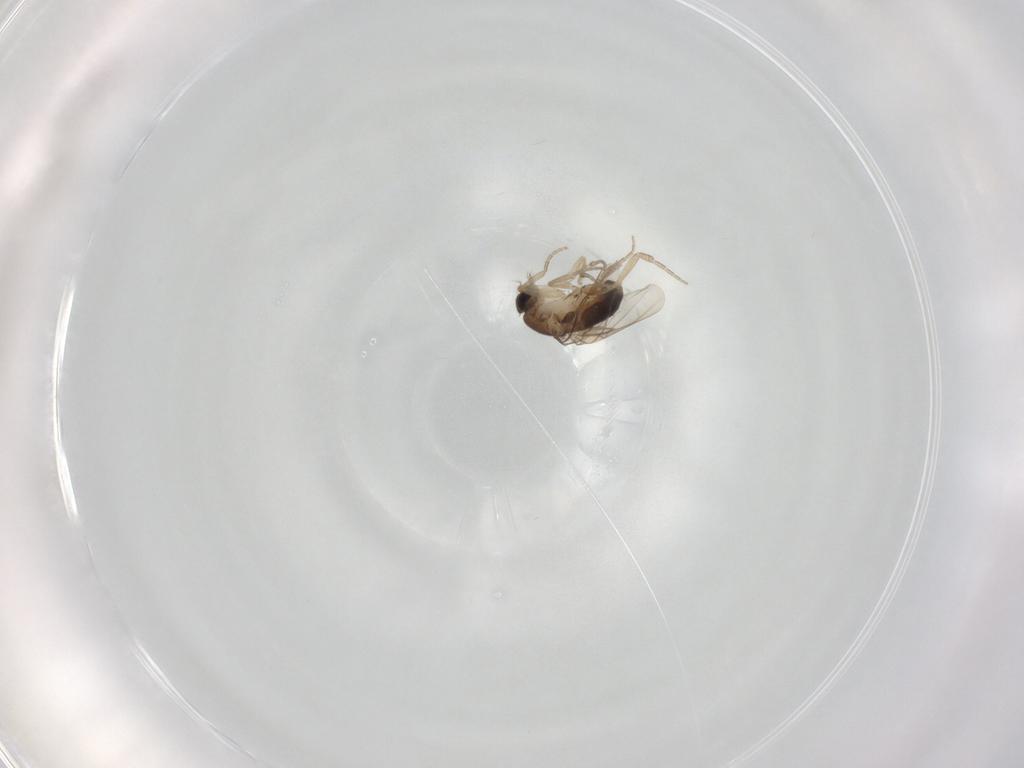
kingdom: Animalia
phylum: Arthropoda
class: Insecta
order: Diptera
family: Phoridae
